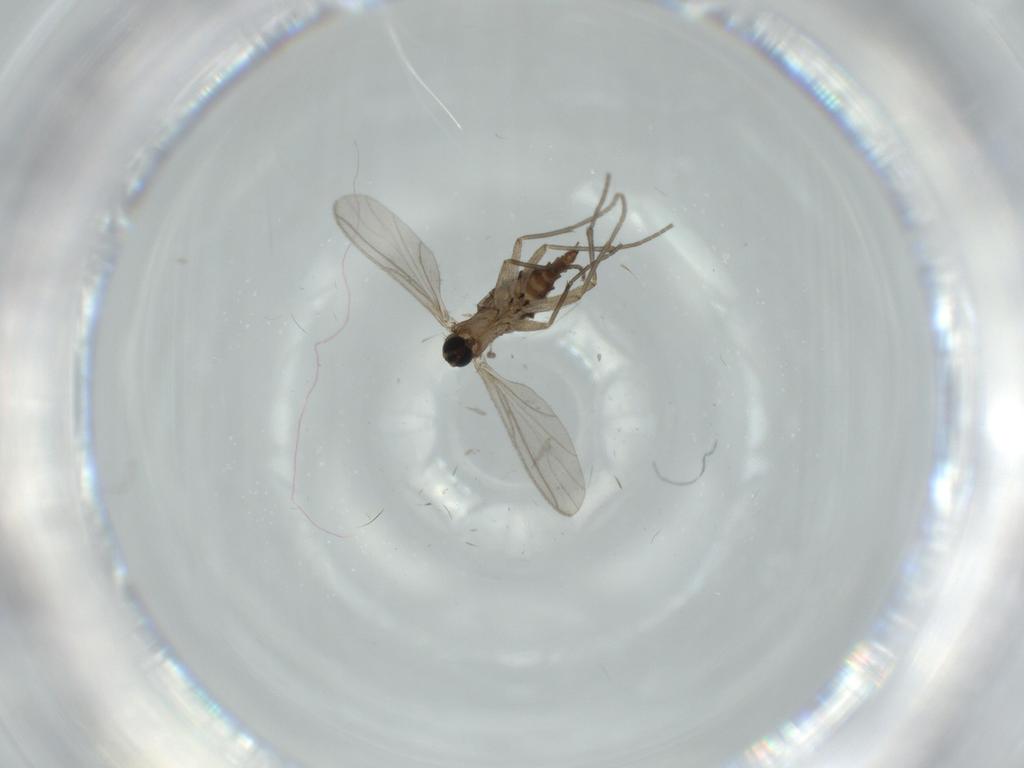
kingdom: Animalia
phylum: Arthropoda
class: Insecta
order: Diptera
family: Sciaridae
